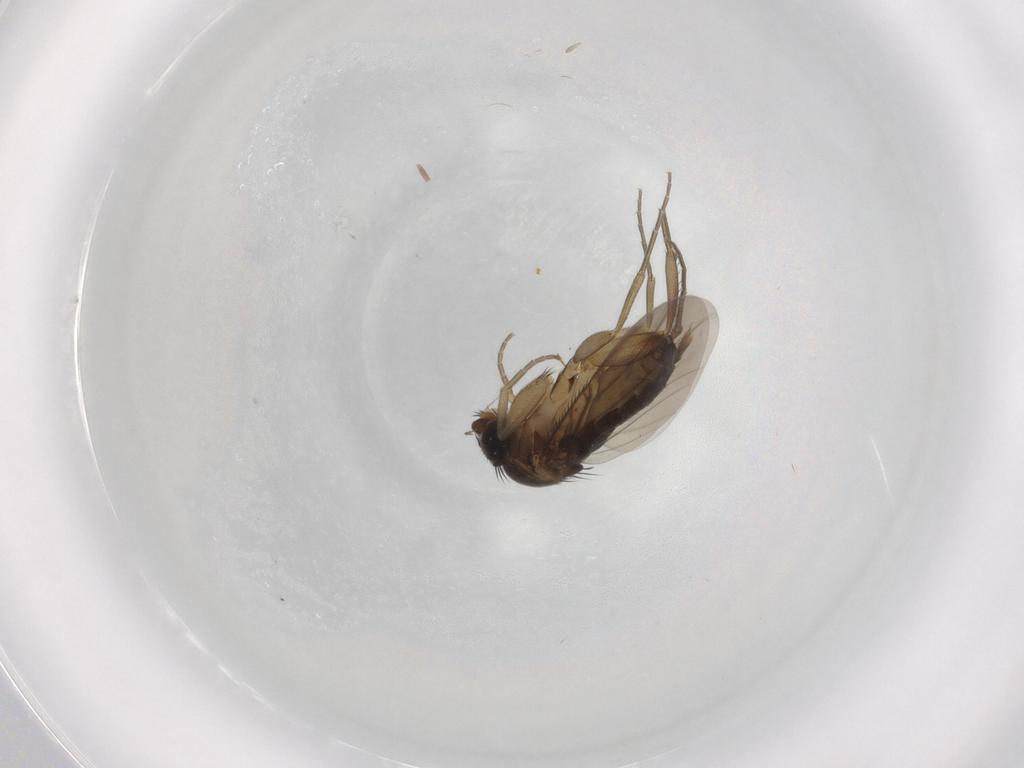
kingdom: Animalia
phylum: Arthropoda
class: Insecta
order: Diptera
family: Phoridae
